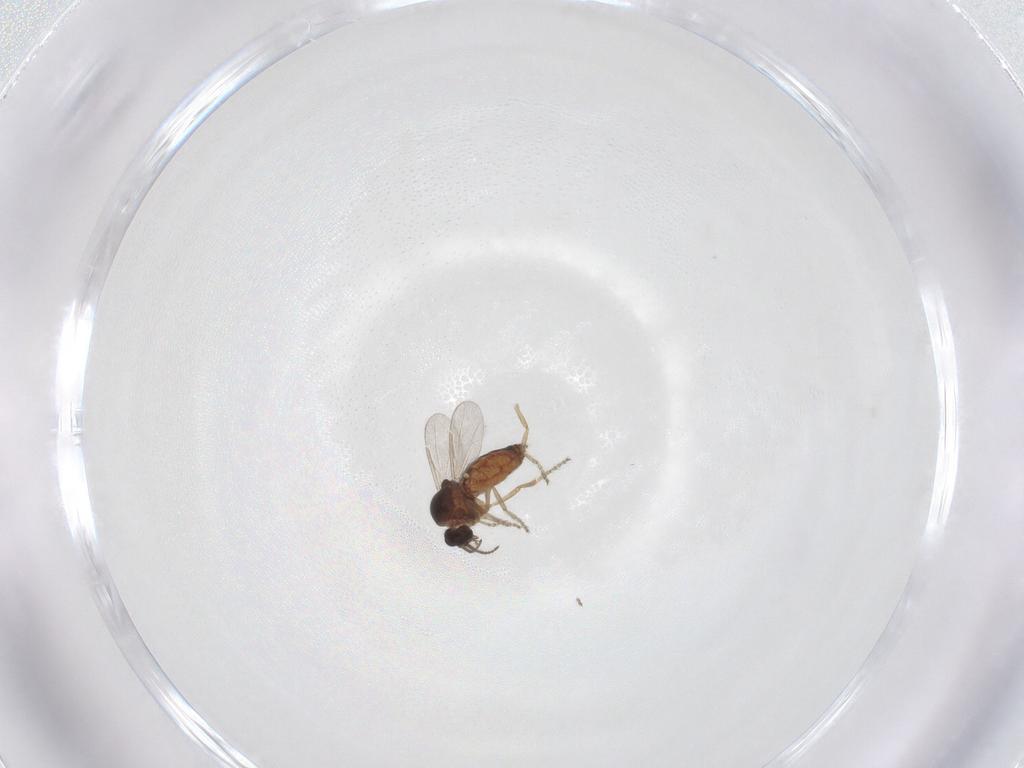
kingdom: Animalia
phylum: Arthropoda
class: Insecta
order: Diptera
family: Ceratopogonidae
